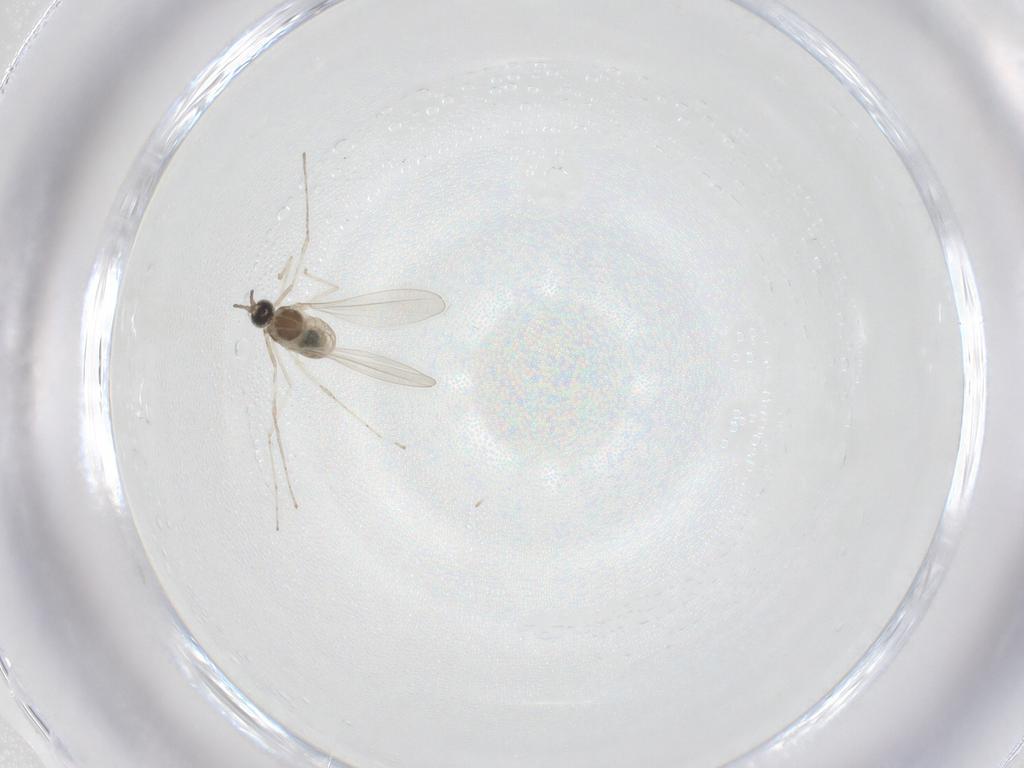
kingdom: Animalia
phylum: Arthropoda
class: Insecta
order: Diptera
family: Cecidomyiidae
